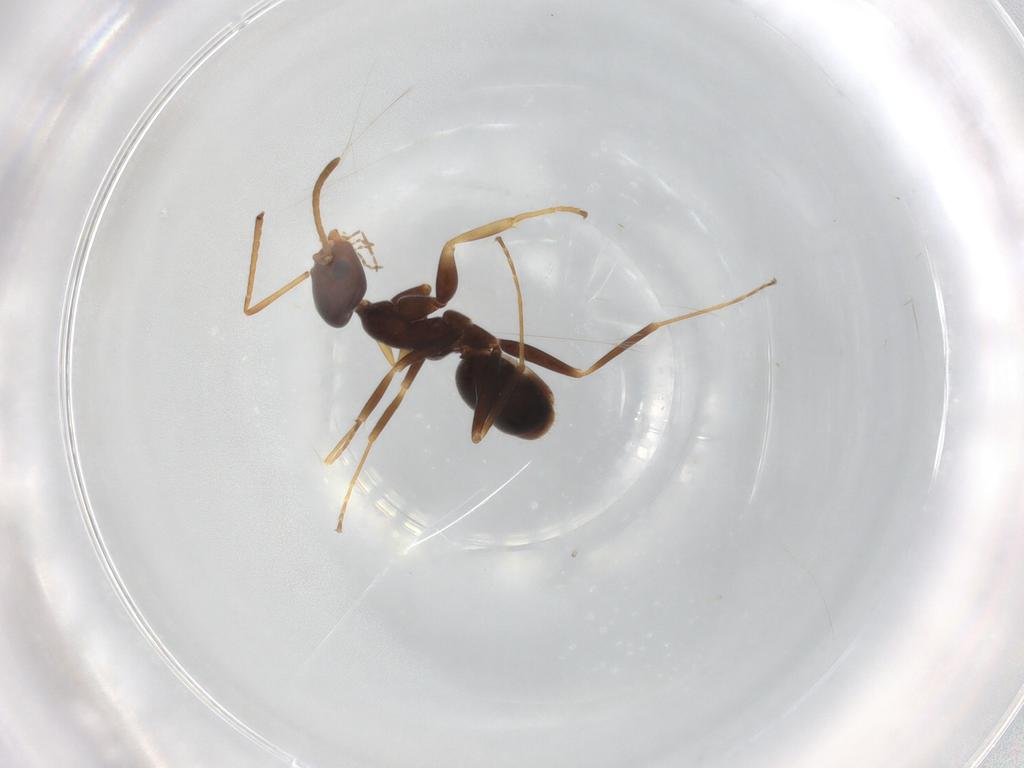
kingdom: Animalia
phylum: Arthropoda
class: Insecta
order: Hymenoptera
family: Formicidae
